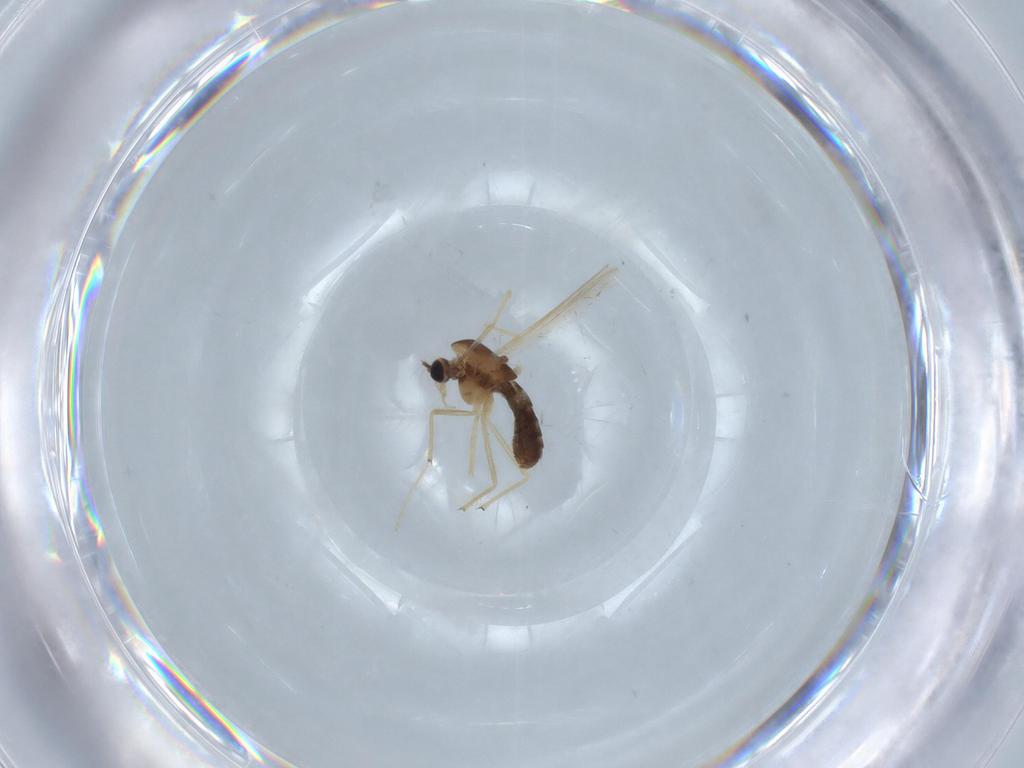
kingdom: Animalia
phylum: Arthropoda
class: Insecta
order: Diptera
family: Chironomidae
